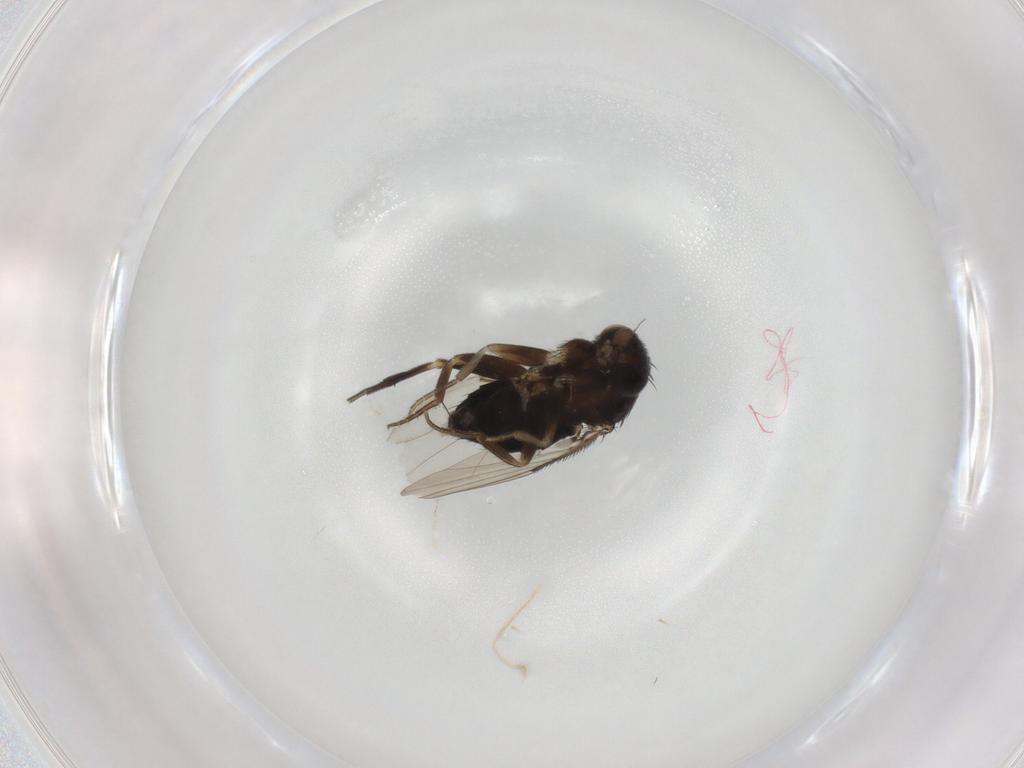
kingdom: Animalia
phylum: Arthropoda
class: Insecta
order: Diptera
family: Phoridae
